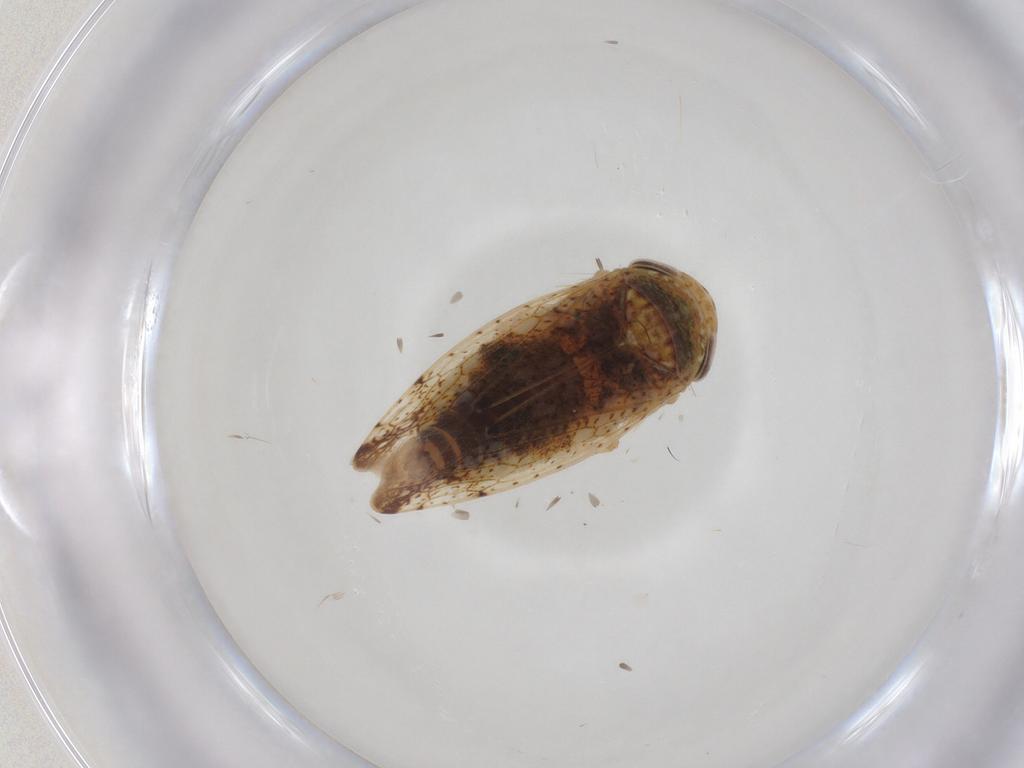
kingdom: Animalia
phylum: Arthropoda
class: Insecta
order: Hemiptera
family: Cicadellidae
